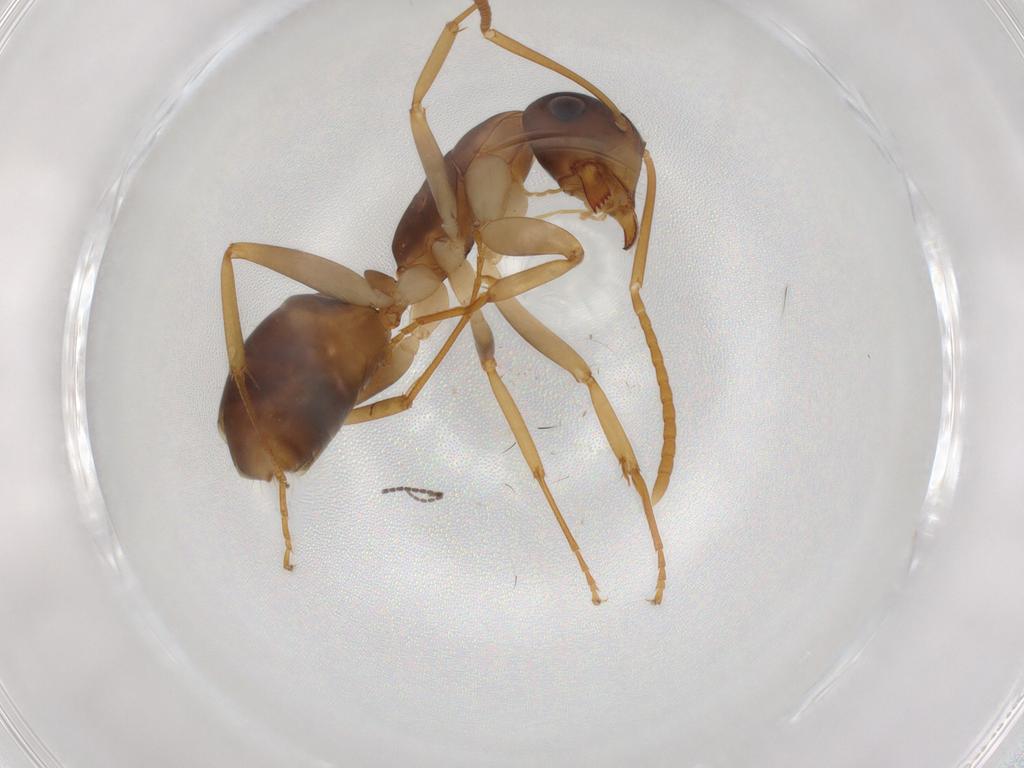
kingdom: Animalia
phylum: Arthropoda
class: Insecta
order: Hymenoptera
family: Formicidae
